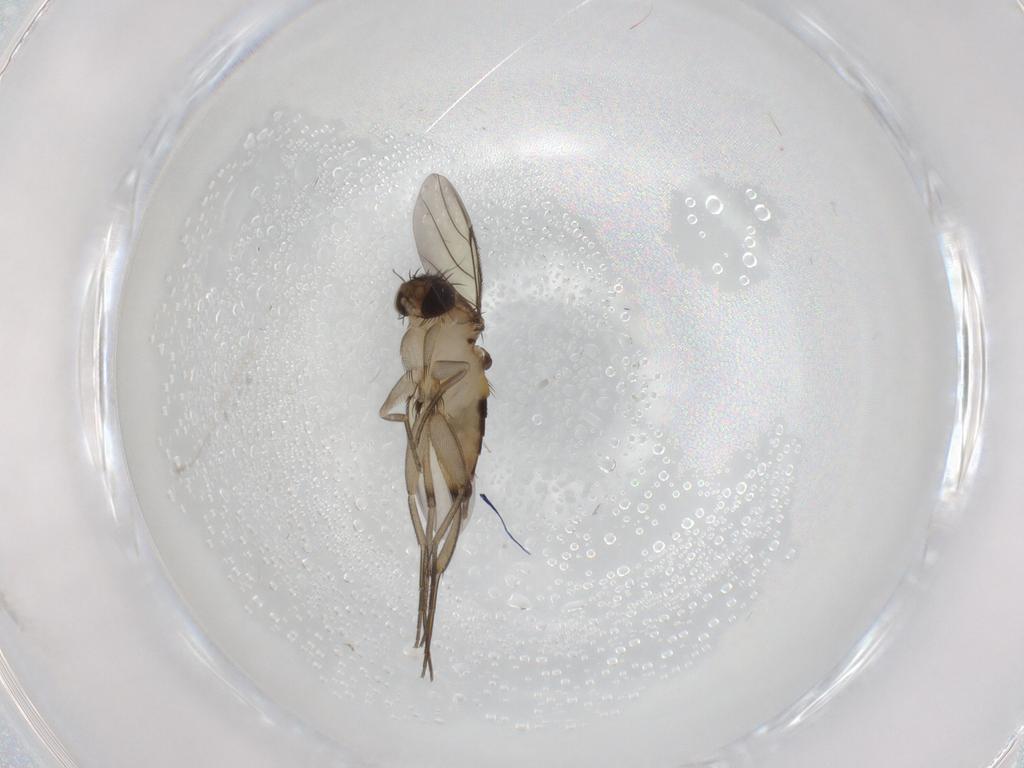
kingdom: Animalia
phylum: Arthropoda
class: Insecta
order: Diptera
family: Phoridae
